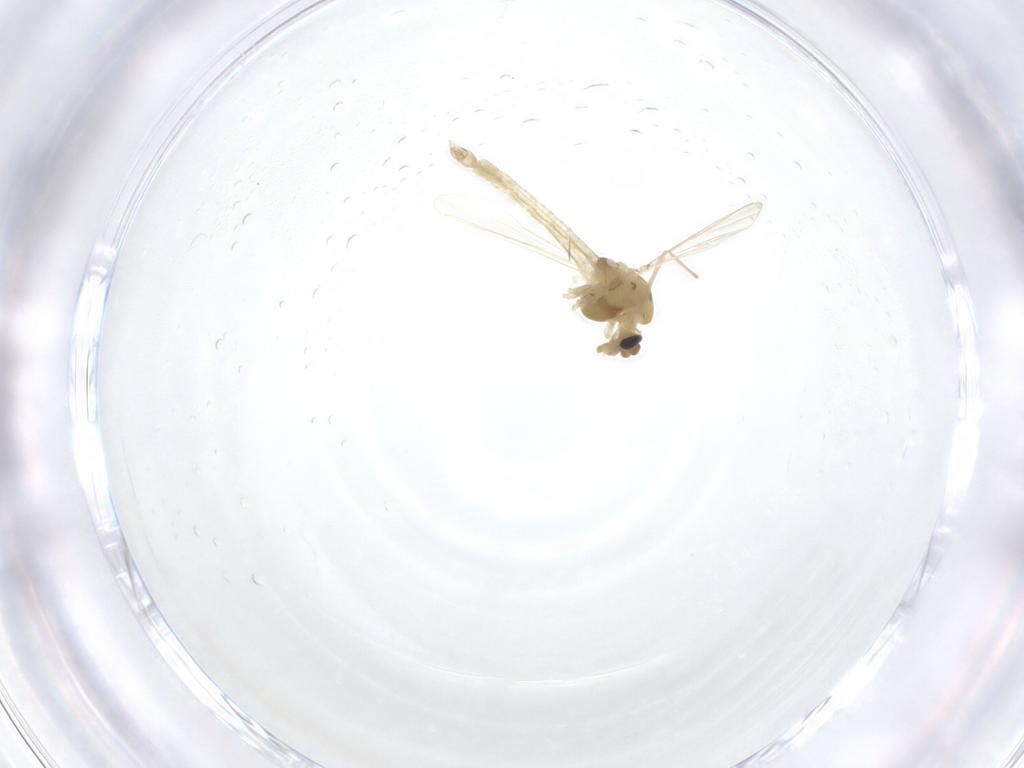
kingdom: Animalia
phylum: Arthropoda
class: Insecta
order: Diptera
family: Chironomidae
